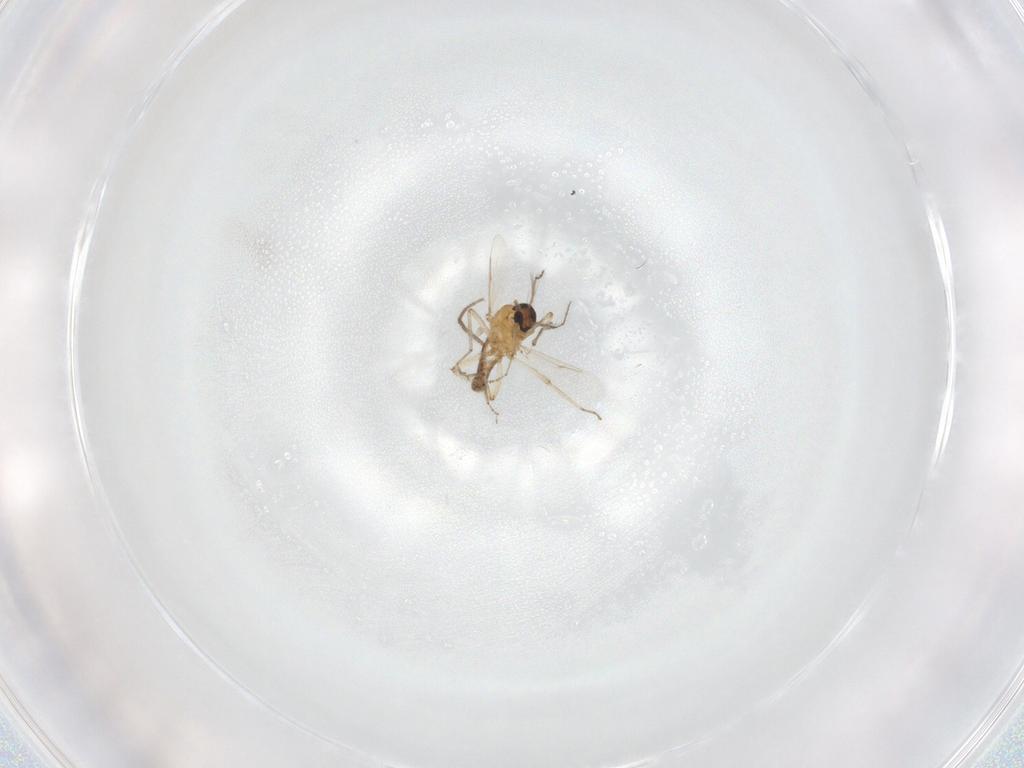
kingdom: Animalia
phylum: Arthropoda
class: Insecta
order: Diptera
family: Ceratopogonidae
